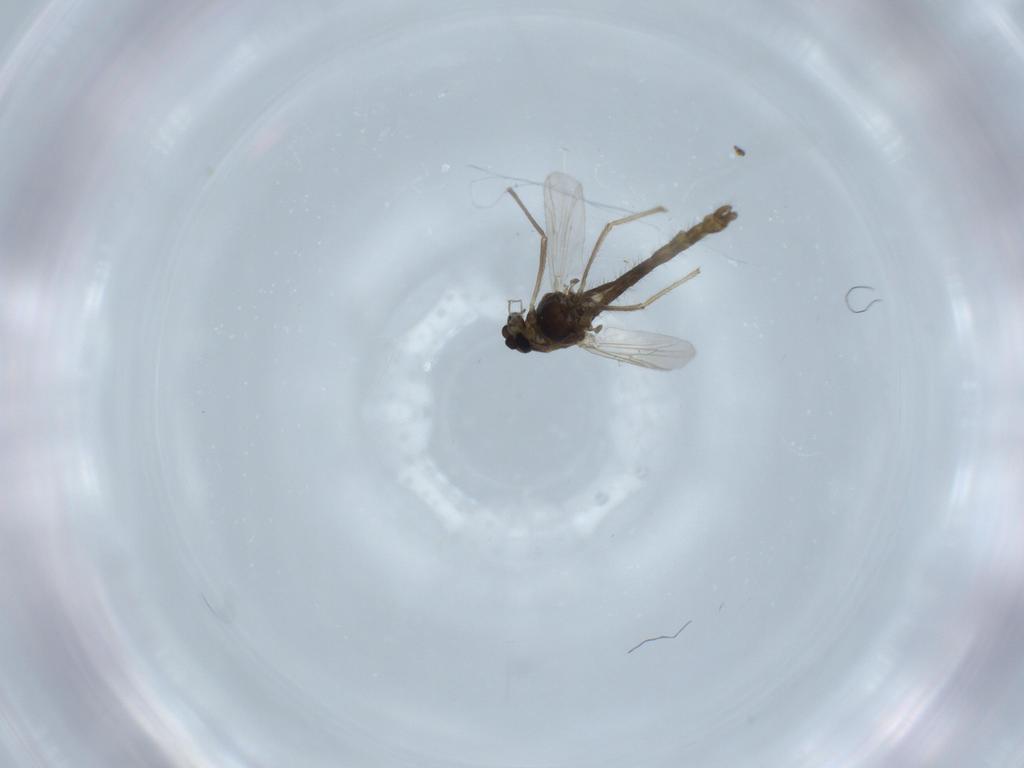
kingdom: Animalia
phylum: Arthropoda
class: Insecta
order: Diptera
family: Chironomidae
